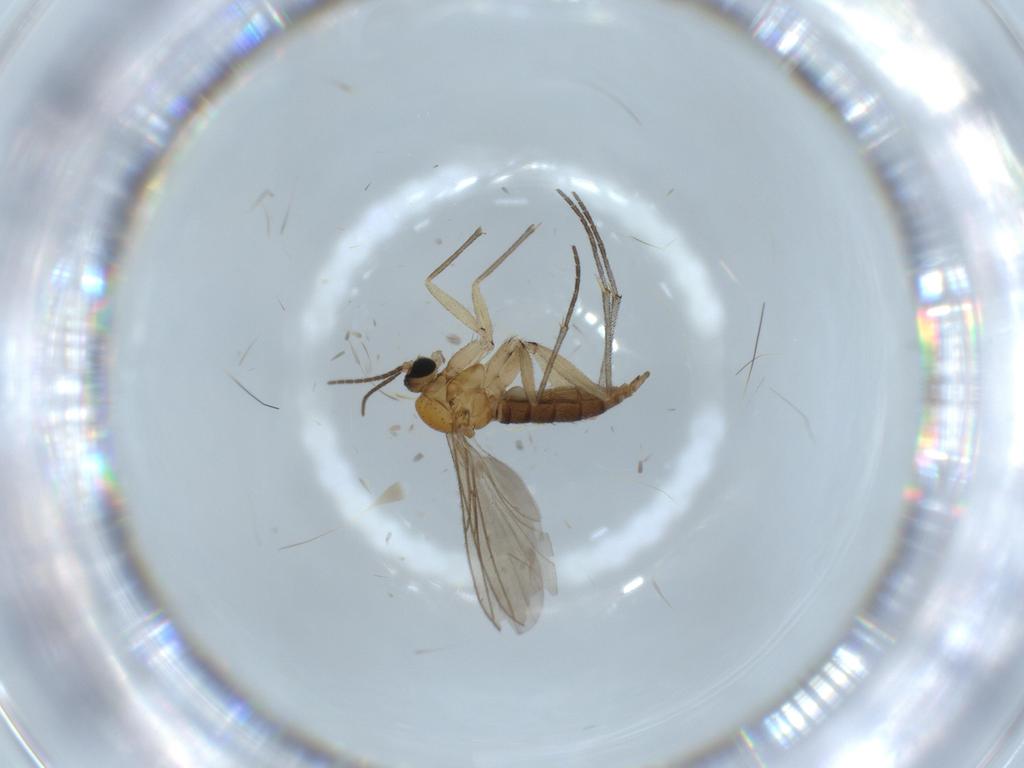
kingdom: Animalia
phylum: Arthropoda
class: Insecta
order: Diptera
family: Sciaridae
